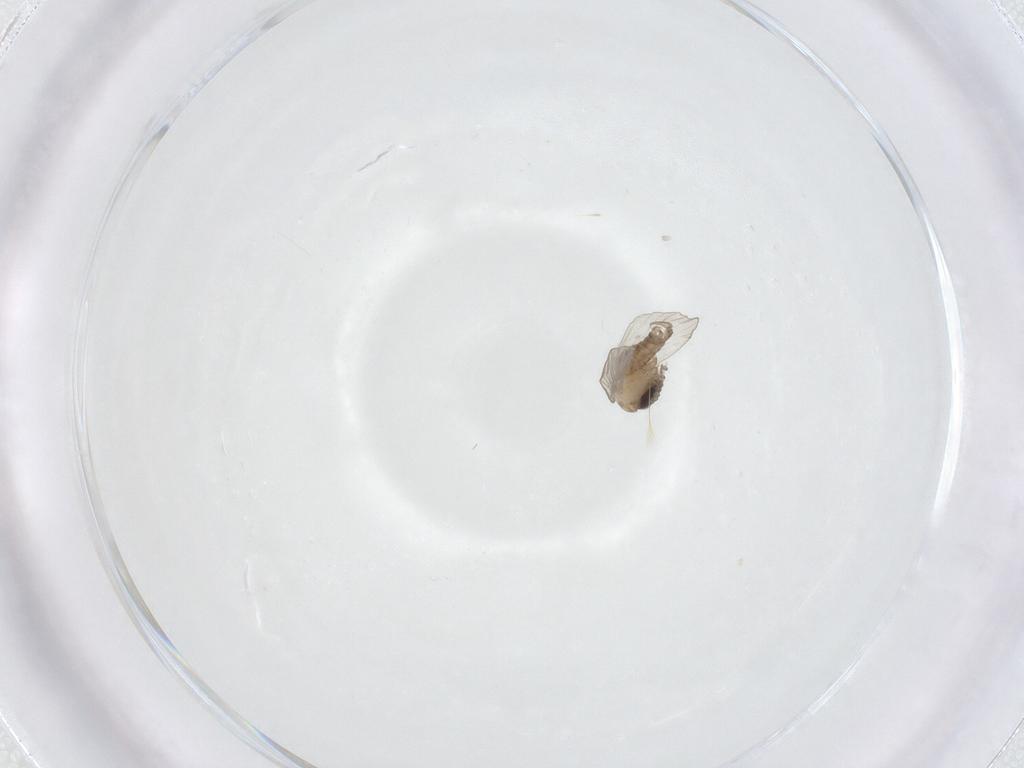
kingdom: Animalia
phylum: Arthropoda
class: Insecta
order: Diptera
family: Psychodidae
